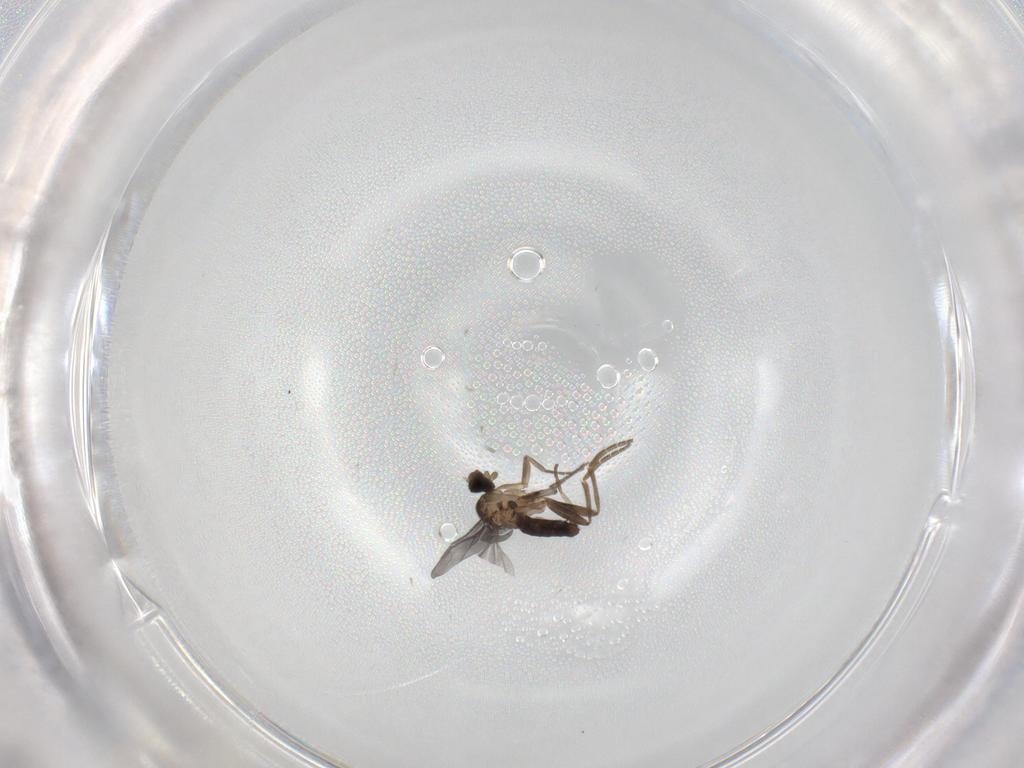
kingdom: Animalia
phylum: Arthropoda
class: Insecta
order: Diptera
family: Phoridae
